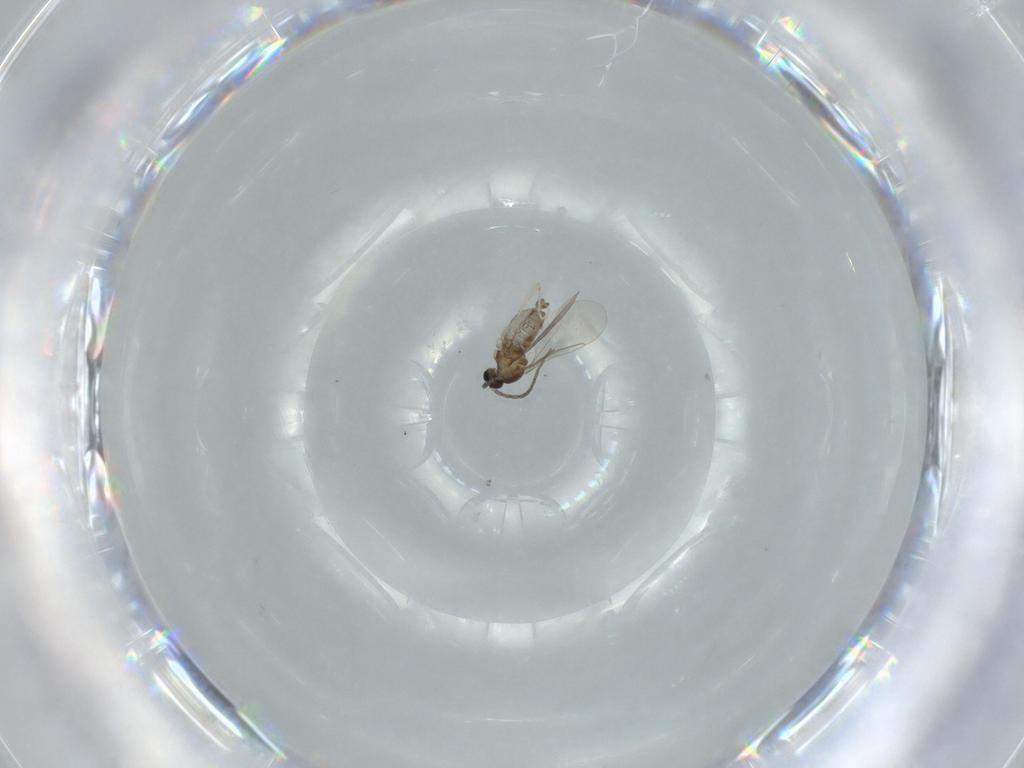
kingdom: Animalia
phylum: Arthropoda
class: Insecta
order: Diptera
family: Cecidomyiidae
